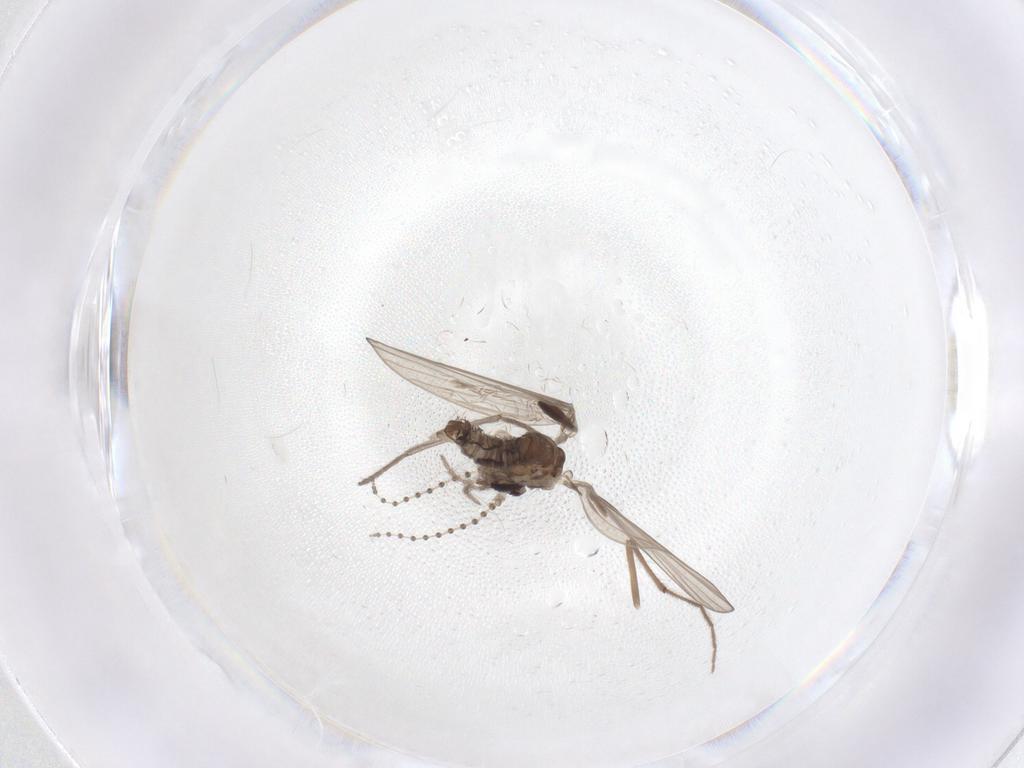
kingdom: Animalia
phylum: Arthropoda
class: Insecta
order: Diptera
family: Psychodidae
